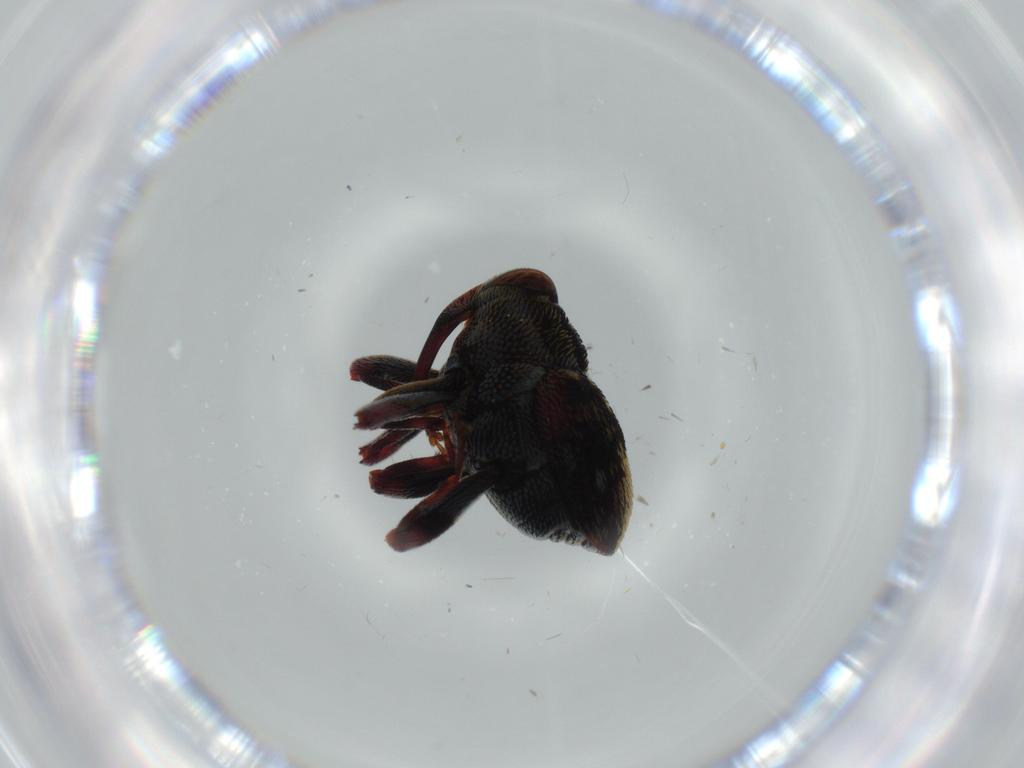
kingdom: Animalia
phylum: Arthropoda
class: Insecta
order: Coleoptera
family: Curculionidae
